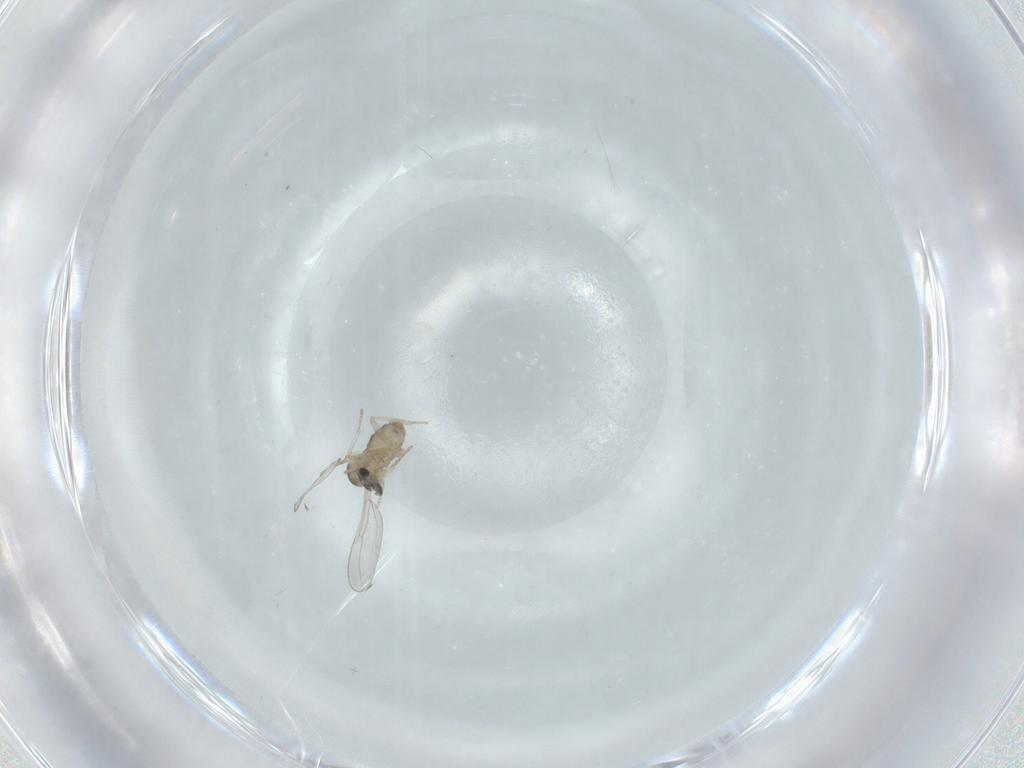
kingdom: Animalia
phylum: Arthropoda
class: Insecta
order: Diptera
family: Cecidomyiidae
